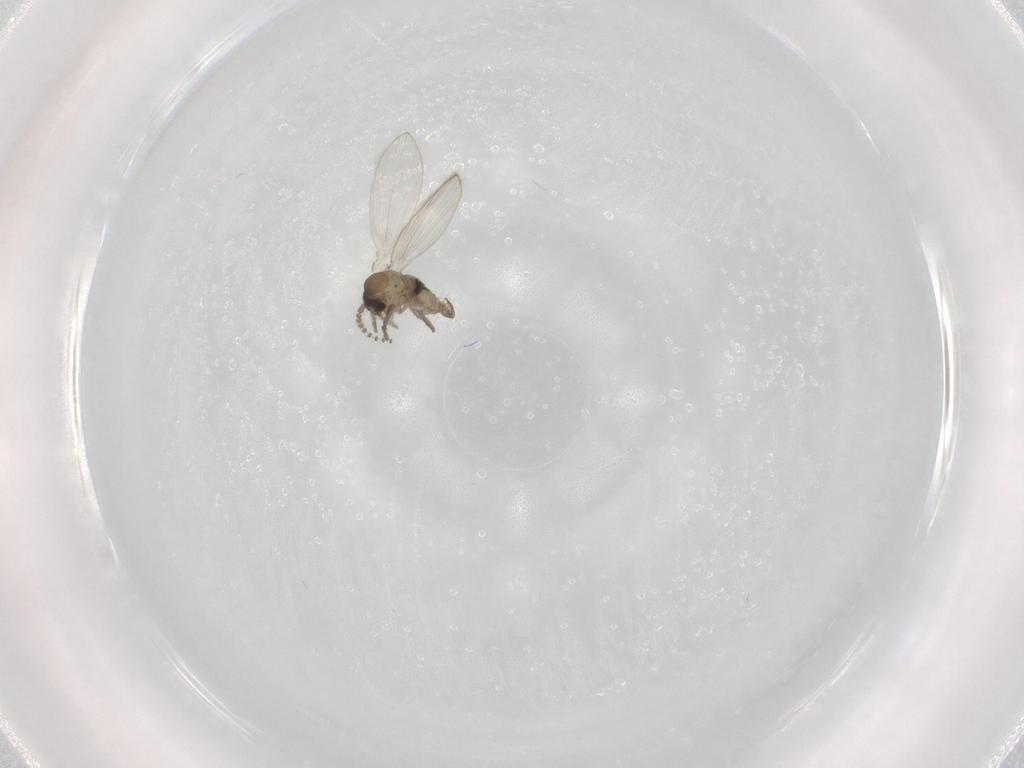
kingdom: Animalia
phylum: Arthropoda
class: Insecta
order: Diptera
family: Psychodidae
